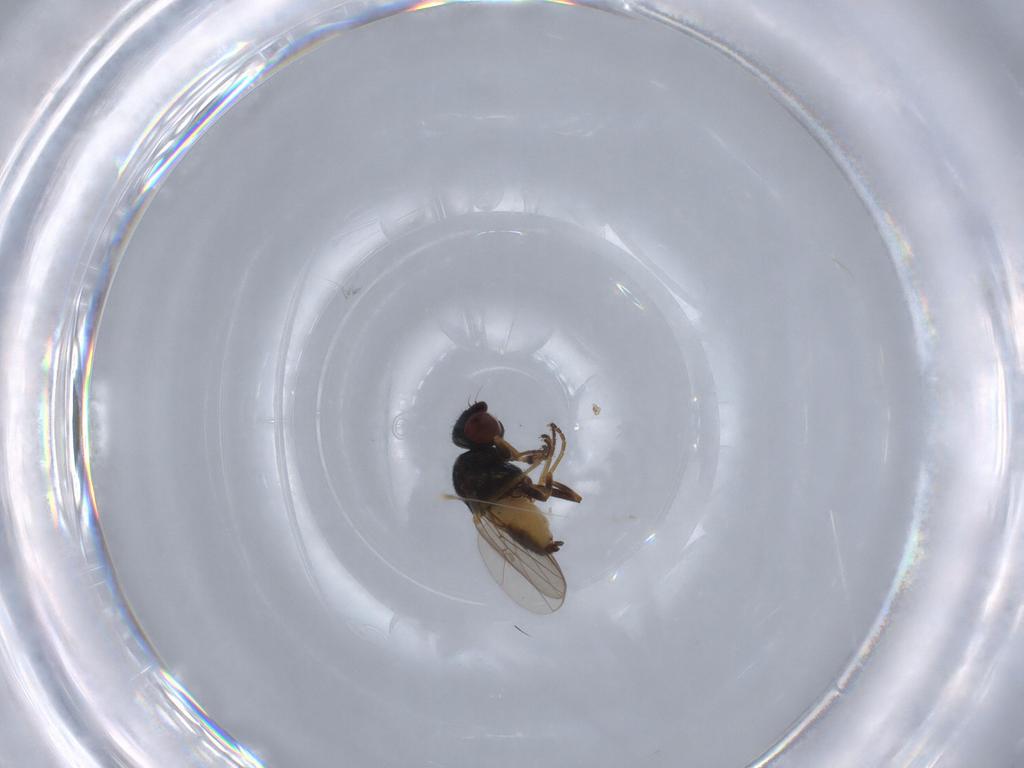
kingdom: Animalia
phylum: Arthropoda
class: Insecta
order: Diptera
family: Chloropidae
